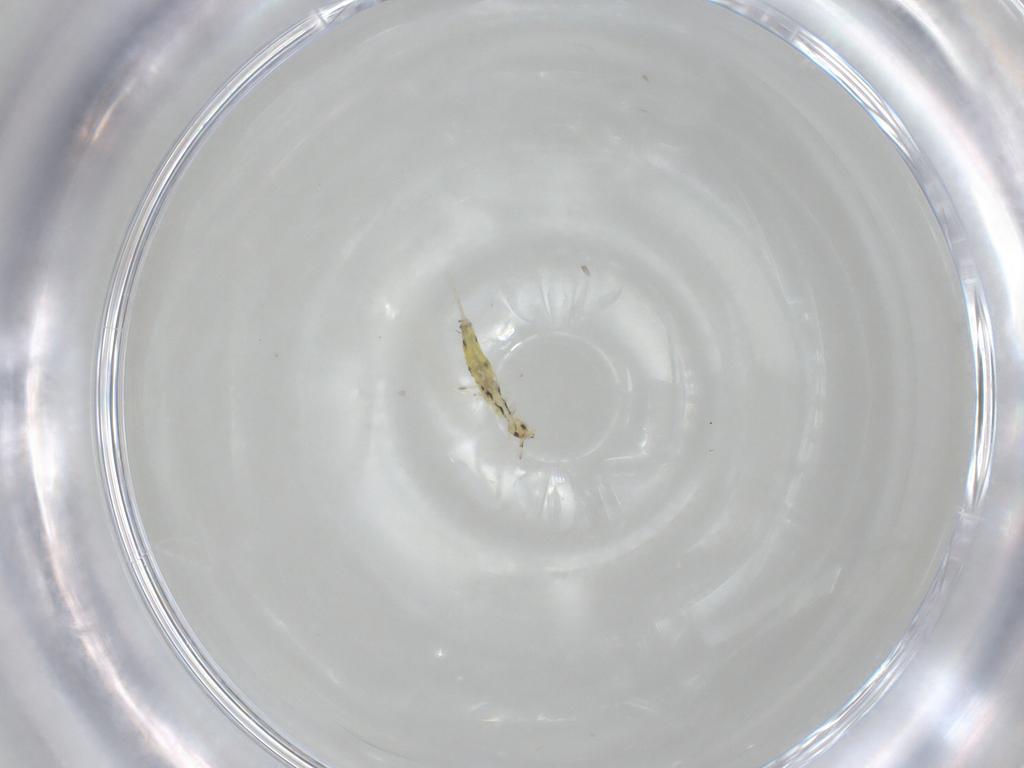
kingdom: Animalia
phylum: Arthropoda
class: Collembola
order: Entomobryomorpha
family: Entomobryidae
